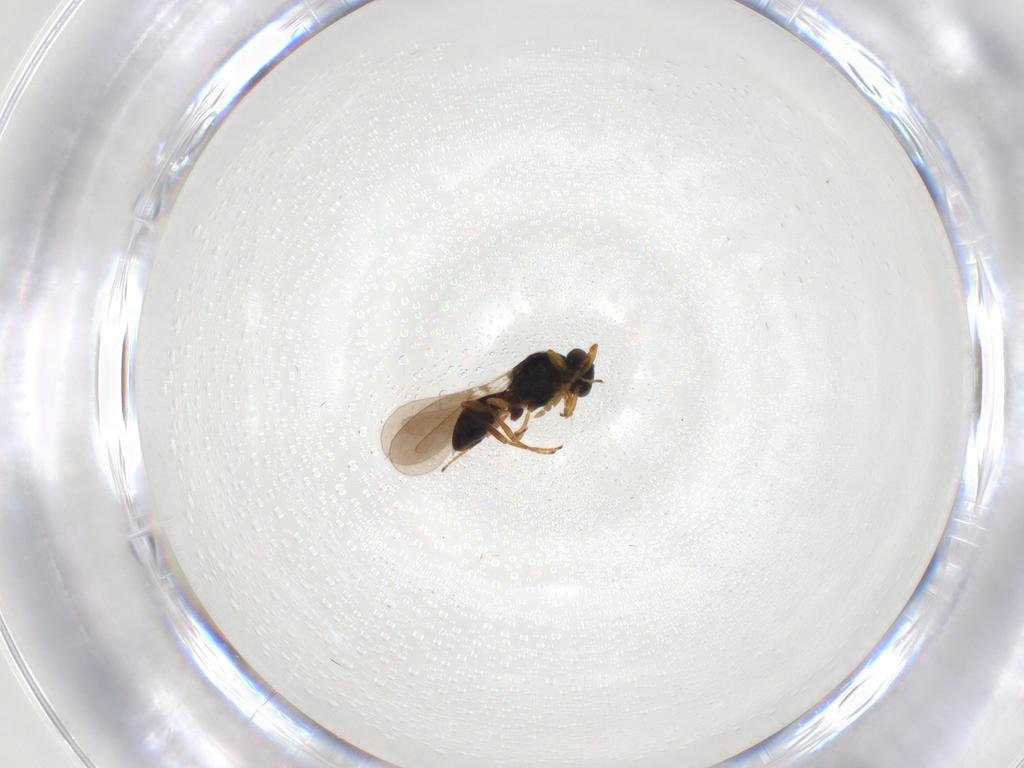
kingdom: Animalia
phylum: Arthropoda
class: Insecta
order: Hymenoptera
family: Platygastridae
